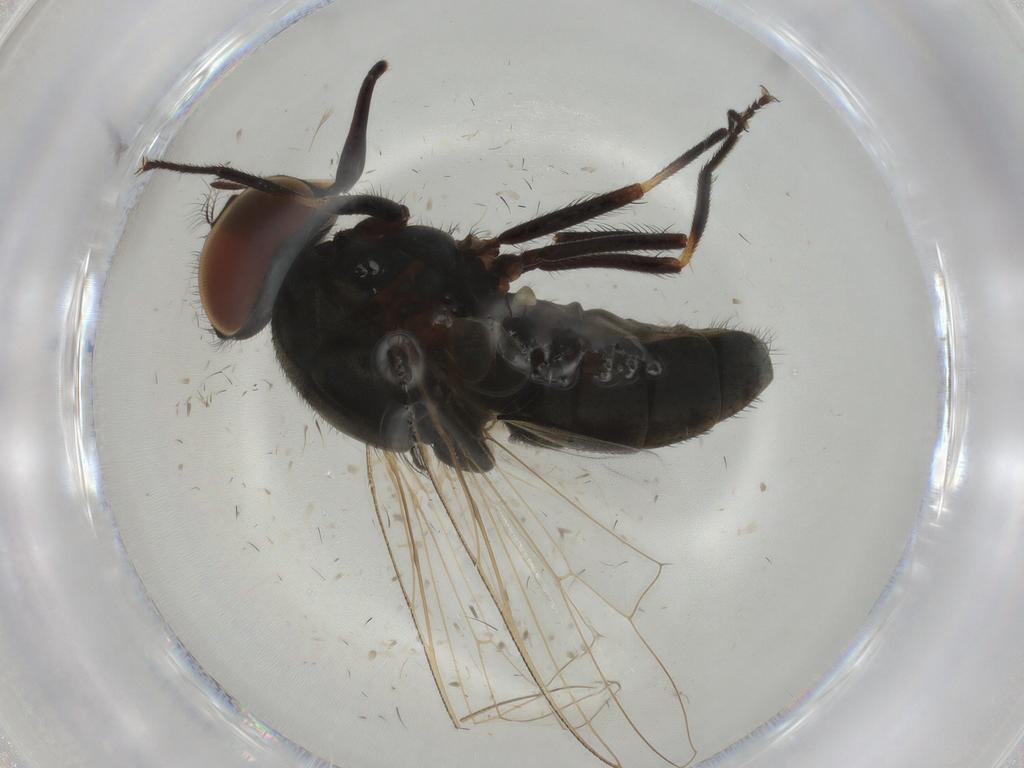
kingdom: Animalia
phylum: Arthropoda
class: Insecta
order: Diptera
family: Muscidae
